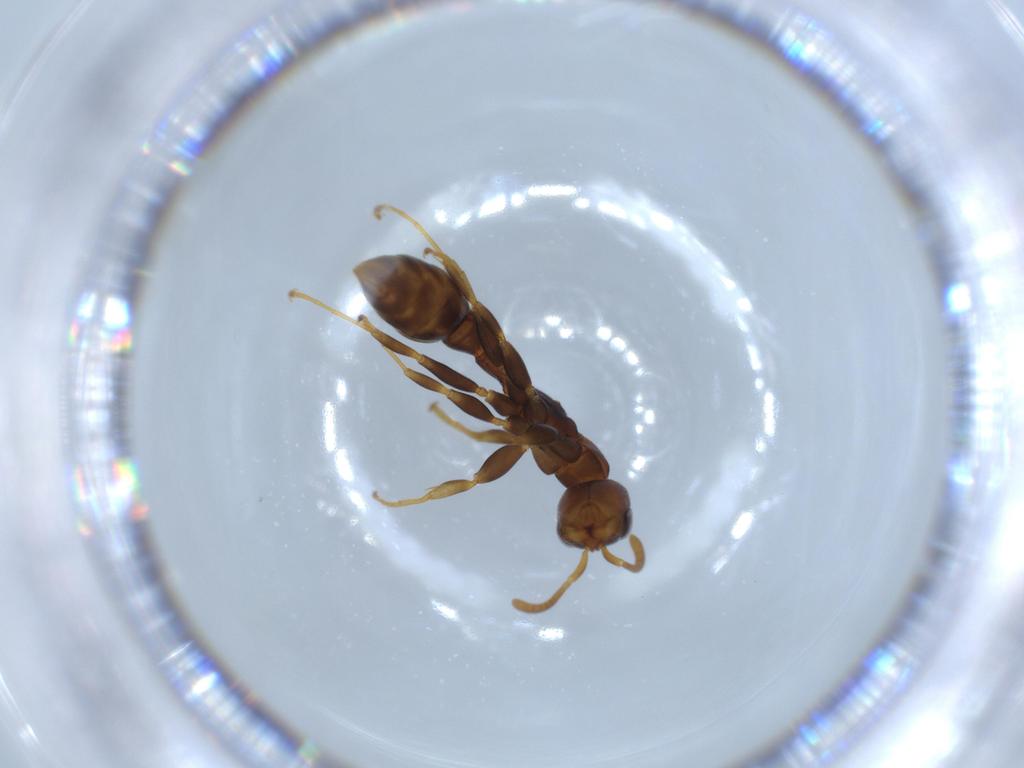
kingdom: Animalia
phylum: Arthropoda
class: Insecta
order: Hymenoptera
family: Formicidae
